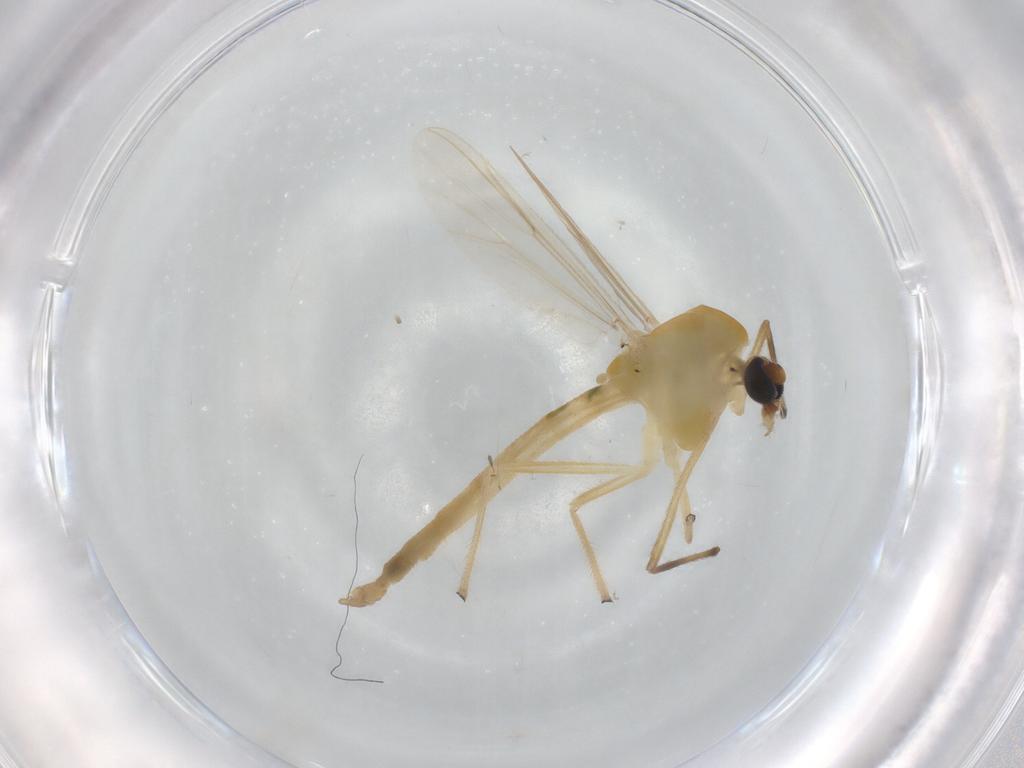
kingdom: Animalia
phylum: Arthropoda
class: Insecta
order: Diptera
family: Chironomidae
